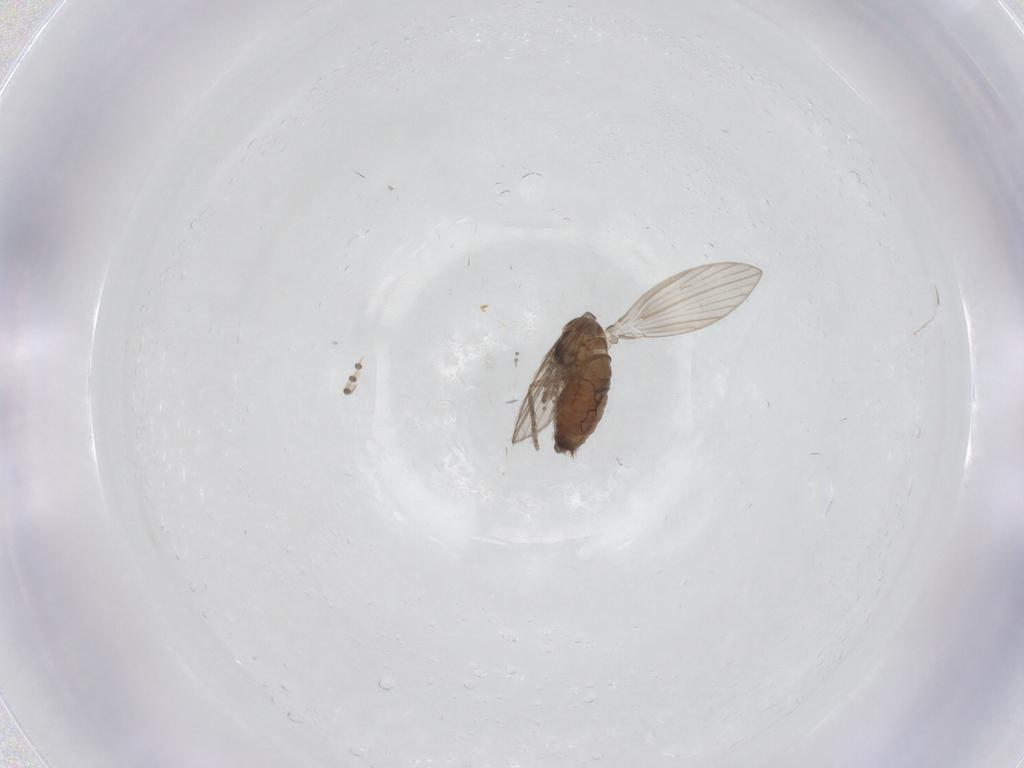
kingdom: Animalia
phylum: Arthropoda
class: Insecta
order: Diptera
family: Psychodidae
